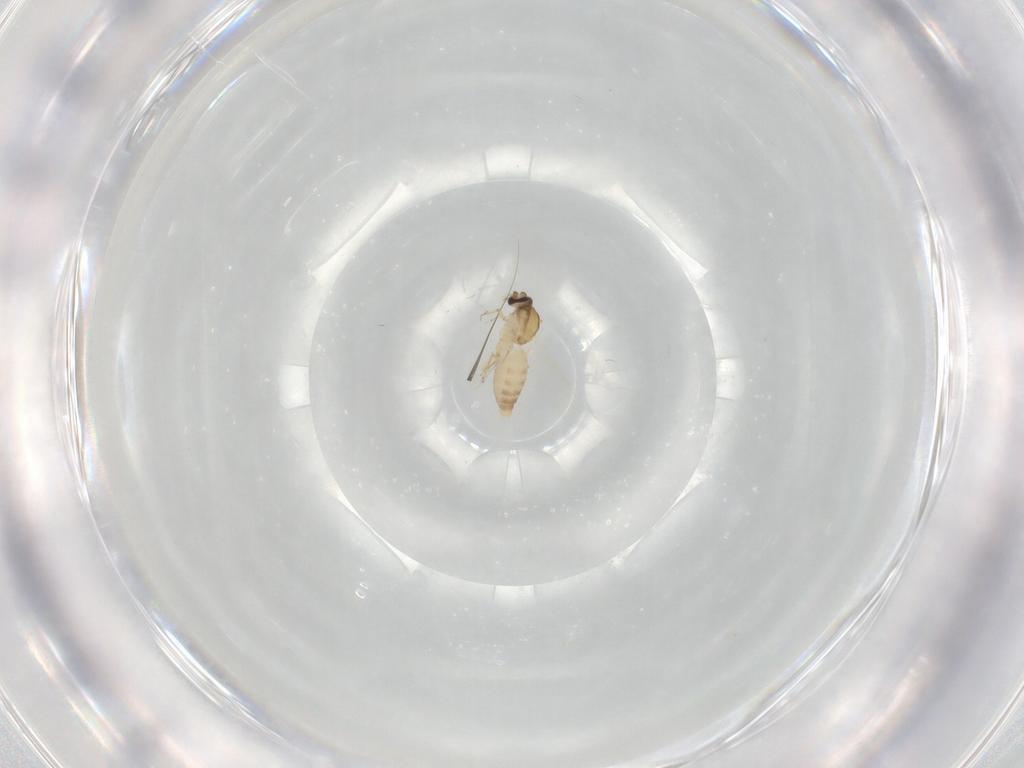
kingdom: Animalia
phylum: Arthropoda
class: Insecta
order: Diptera
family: Ceratopogonidae
